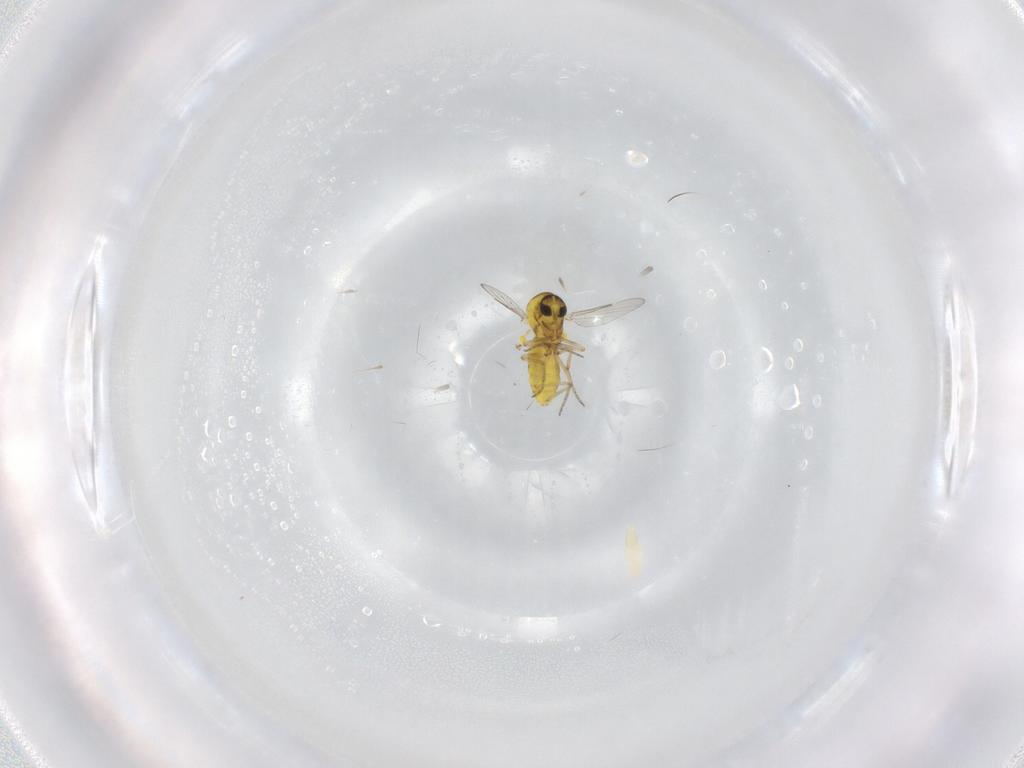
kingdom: Animalia
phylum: Arthropoda
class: Insecta
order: Diptera
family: Ceratopogonidae
